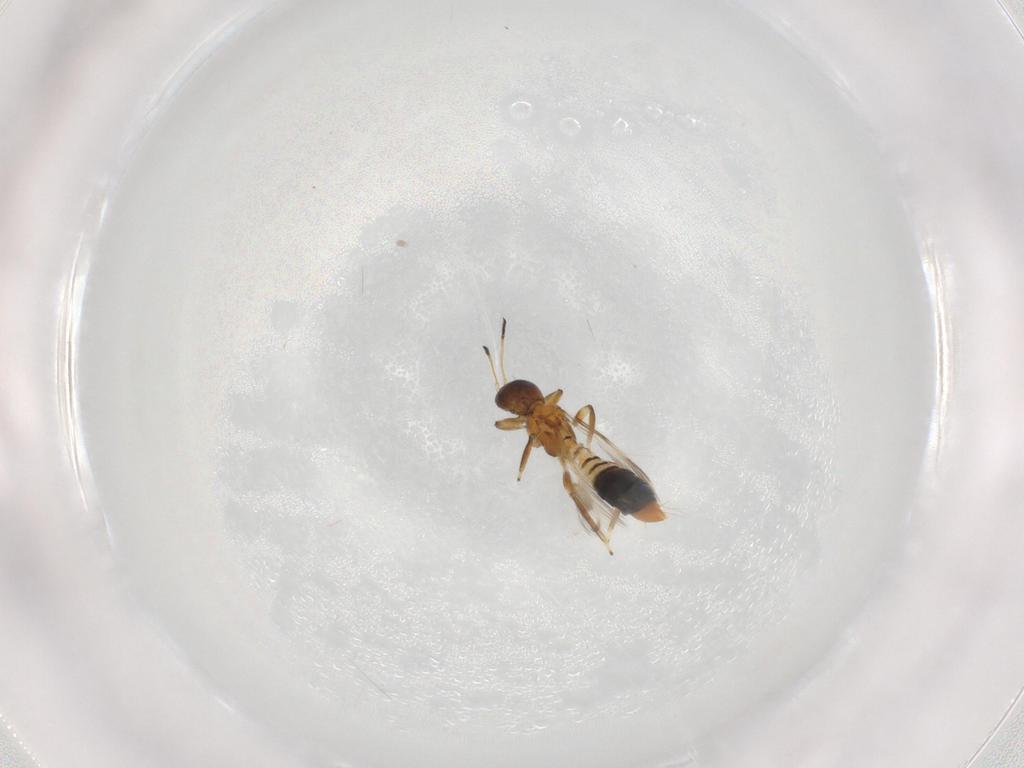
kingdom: Animalia
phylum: Arthropoda
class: Insecta
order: Thysanoptera
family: Aeolothripidae
